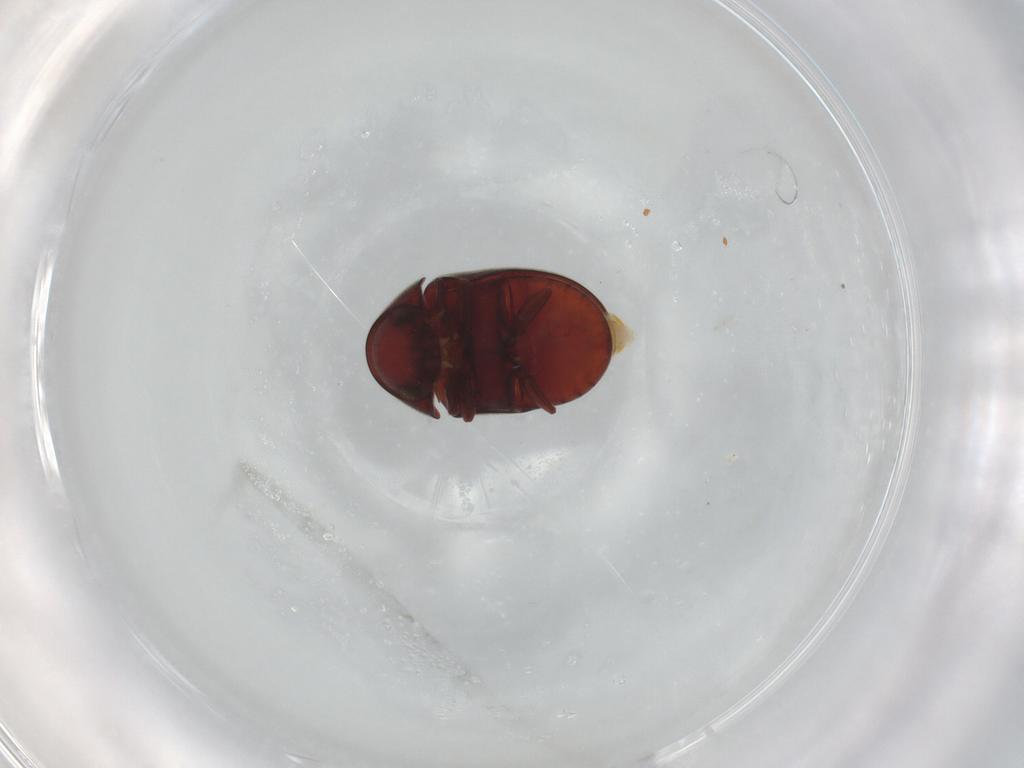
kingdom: Animalia
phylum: Arthropoda
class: Insecta
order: Coleoptera
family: Ptinidae
